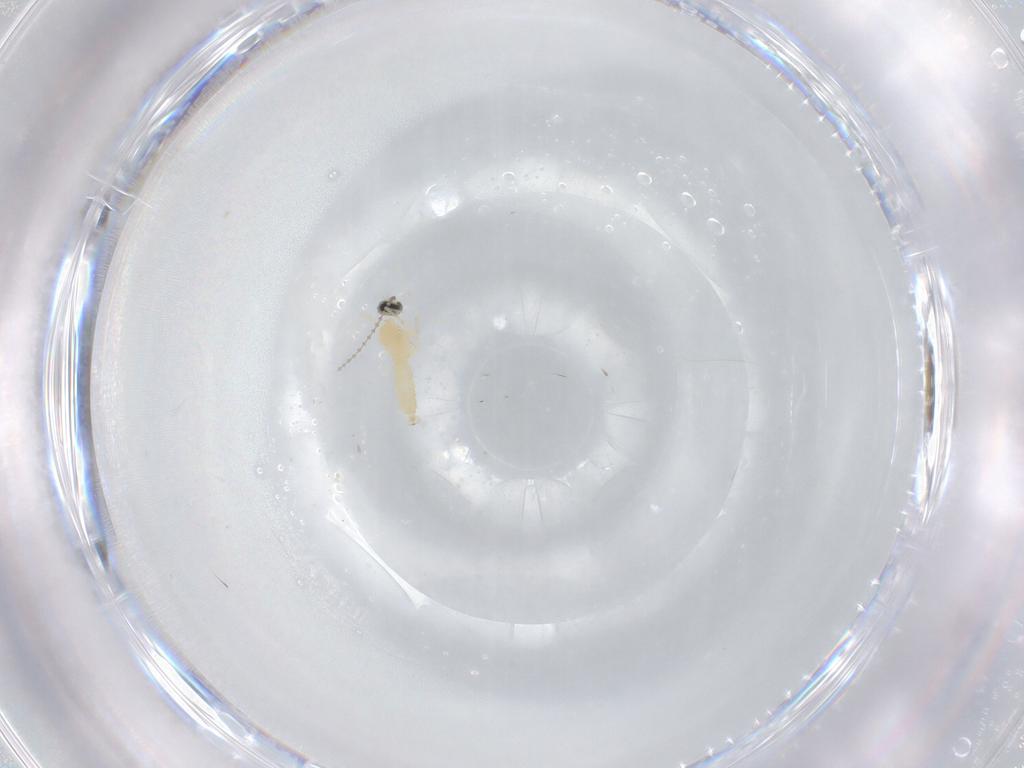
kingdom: Animalia
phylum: Arthropoda
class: Insecta
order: Diptera
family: Cecidomyiidae
